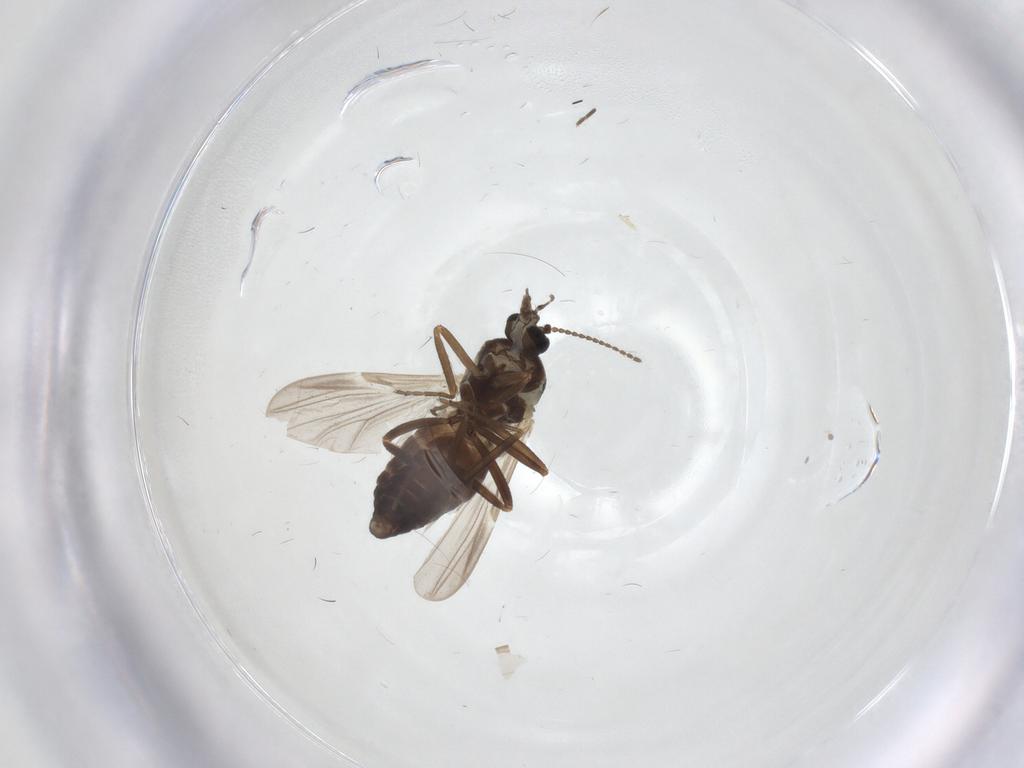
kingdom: Animalia
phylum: Arthropoda
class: Insecta
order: Diptera
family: Ceratopogonidae
